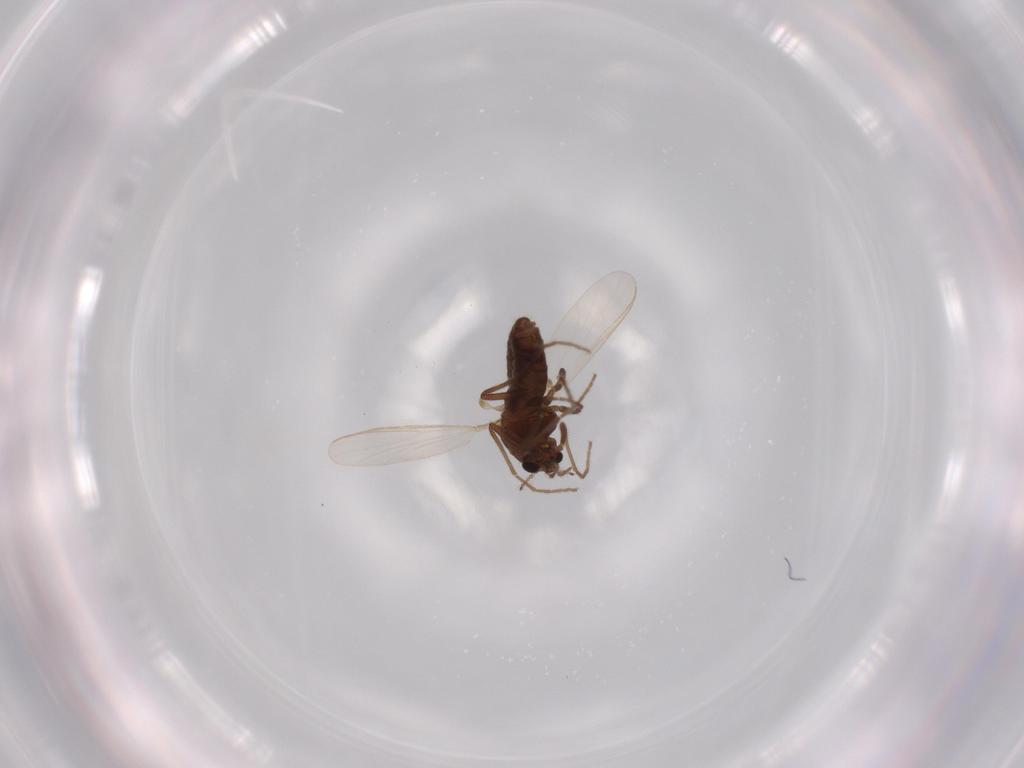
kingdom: Animalia
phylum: Arthropoda
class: Insecta
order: Diptera
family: Chironomidae
